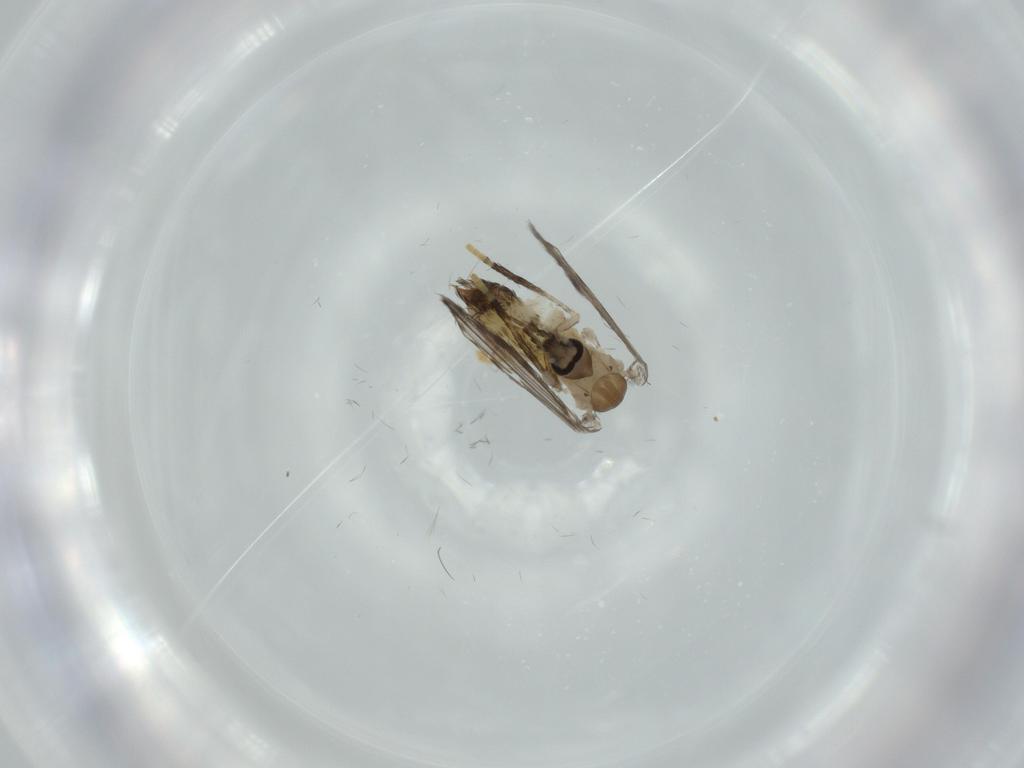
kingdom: Animalia
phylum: Arthropoda
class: Insecta
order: Diptera
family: Psychodidae
